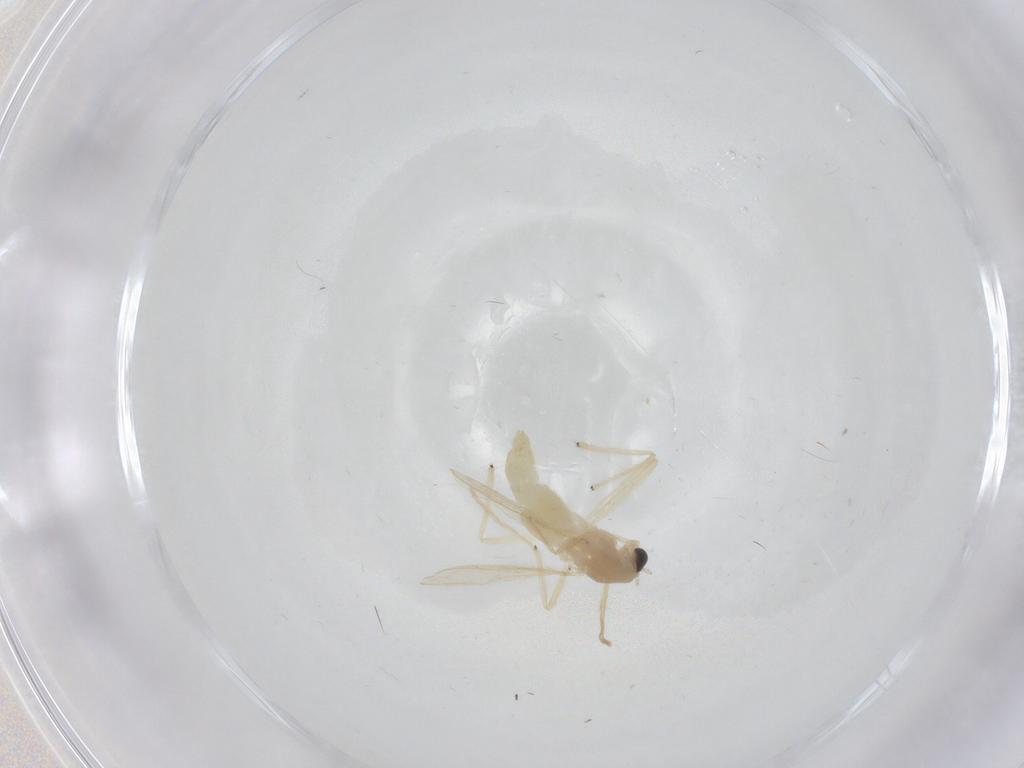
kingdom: Animalia
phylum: Arthropoda
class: Insecta
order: Diptera
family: Chironomidae
